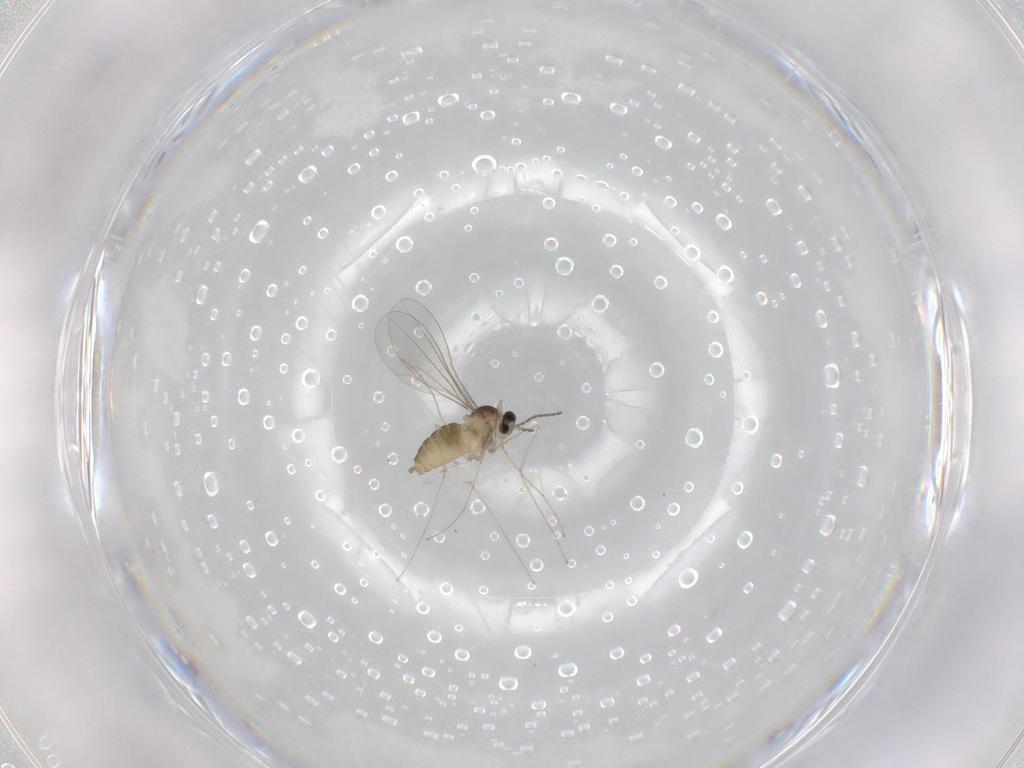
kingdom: Animalia
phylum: Arthropoda
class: Insecta
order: Diptera
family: Cecidomyiidae
